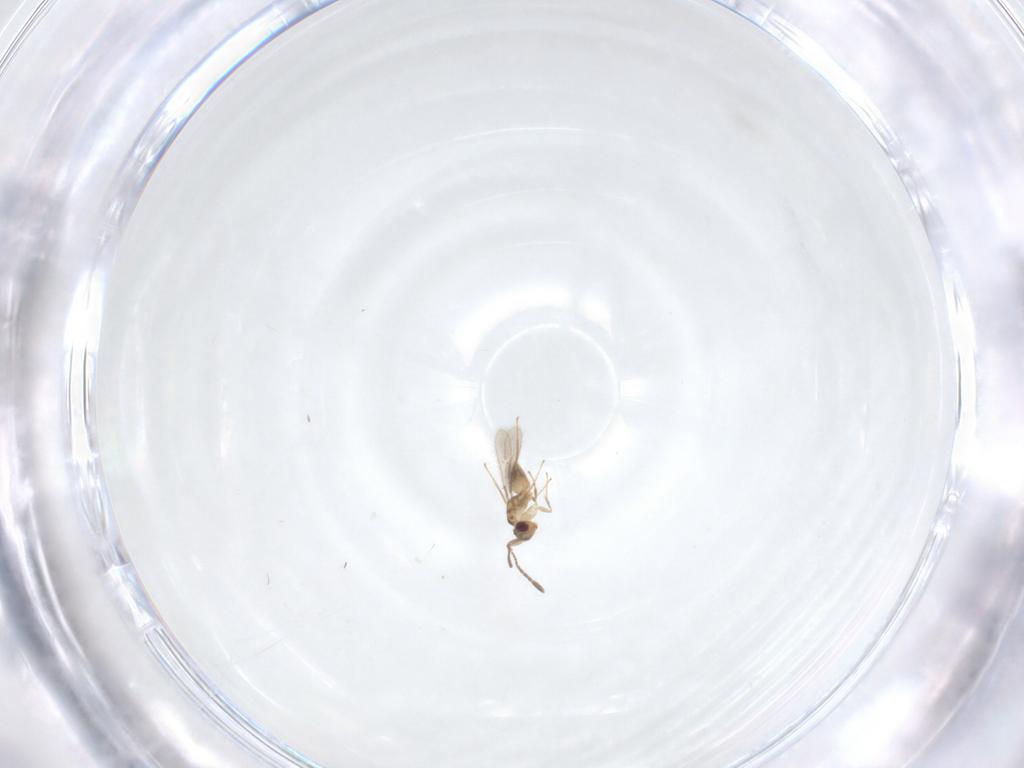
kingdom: Animalia
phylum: Arthropoda
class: Insecta
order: Hymenoptera
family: Mymaridae
